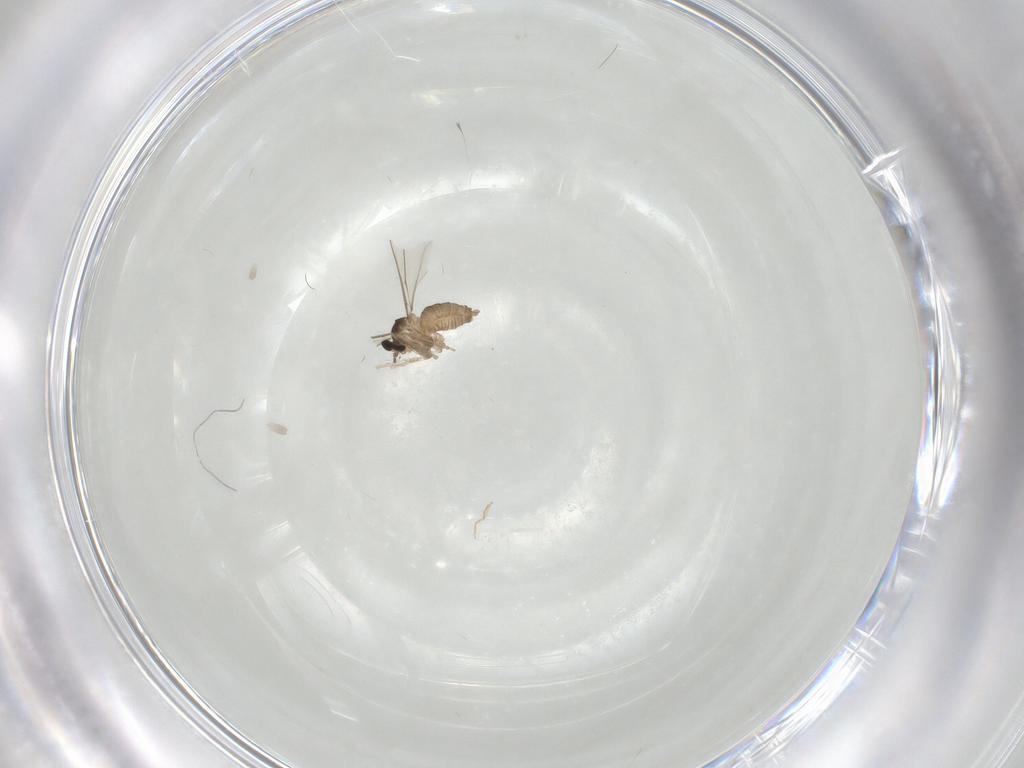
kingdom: Animalia
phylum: Arthropoda
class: Insecta
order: Diptera
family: Cecidomyiidae
